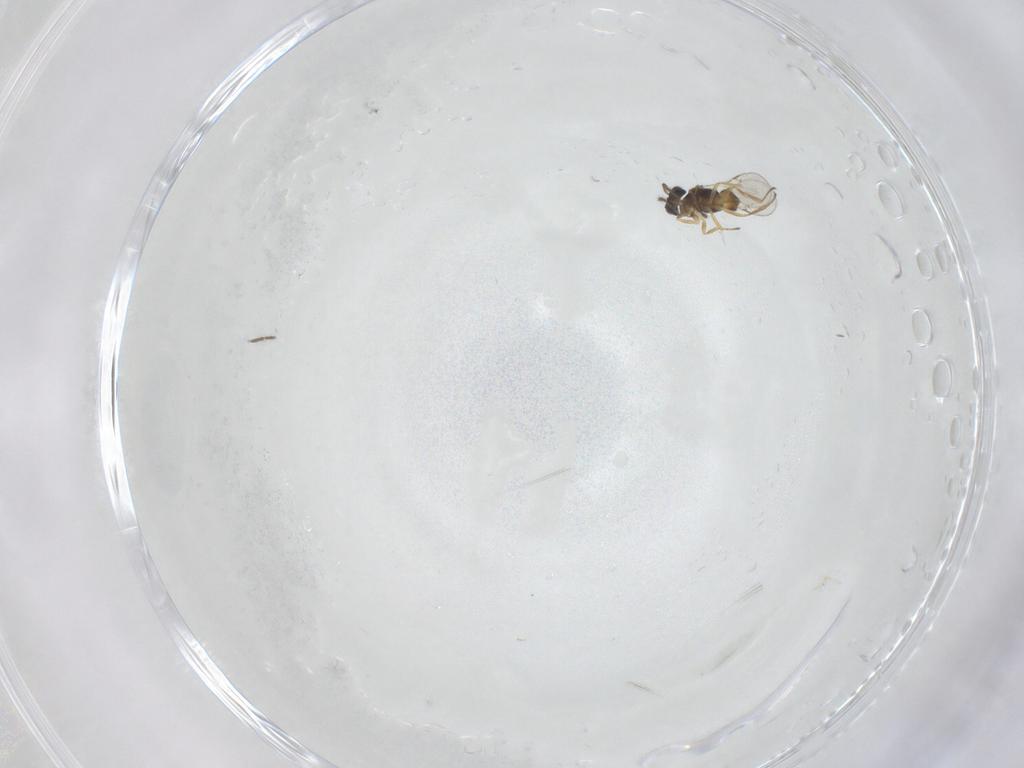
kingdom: Animalia
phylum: Arthropoda
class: Insecta
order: Hymenoptera
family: Encyrtidae
